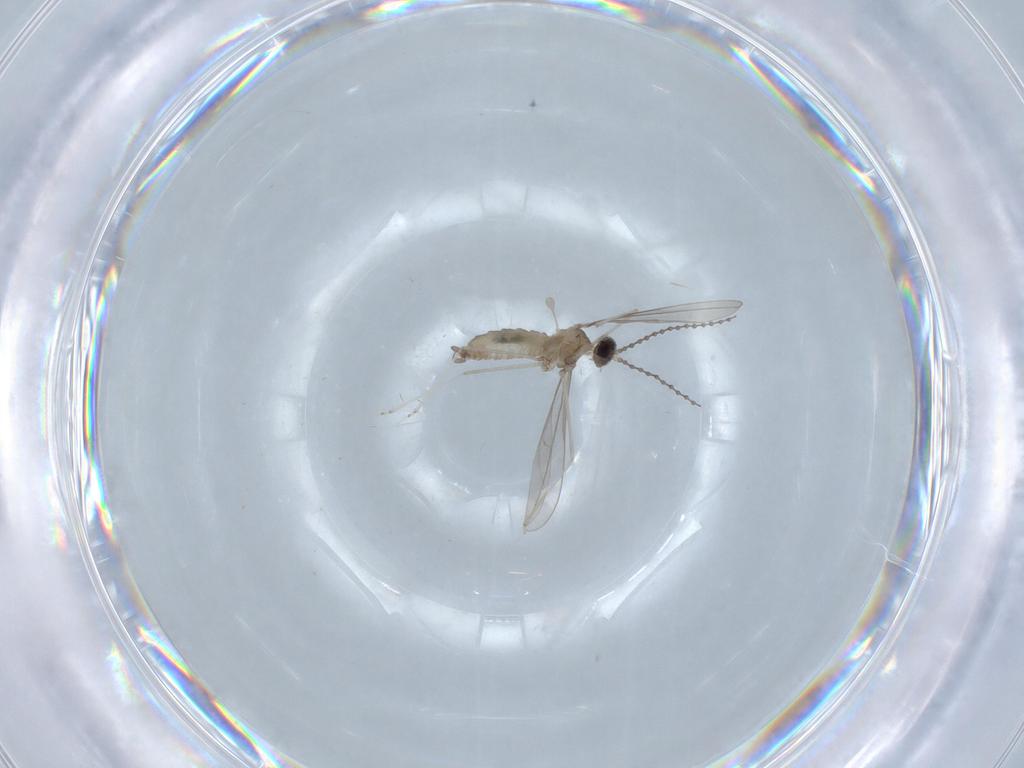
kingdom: Animalia
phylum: Arthropoda
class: Insecta
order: Diptera
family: Cecidomyiidae
